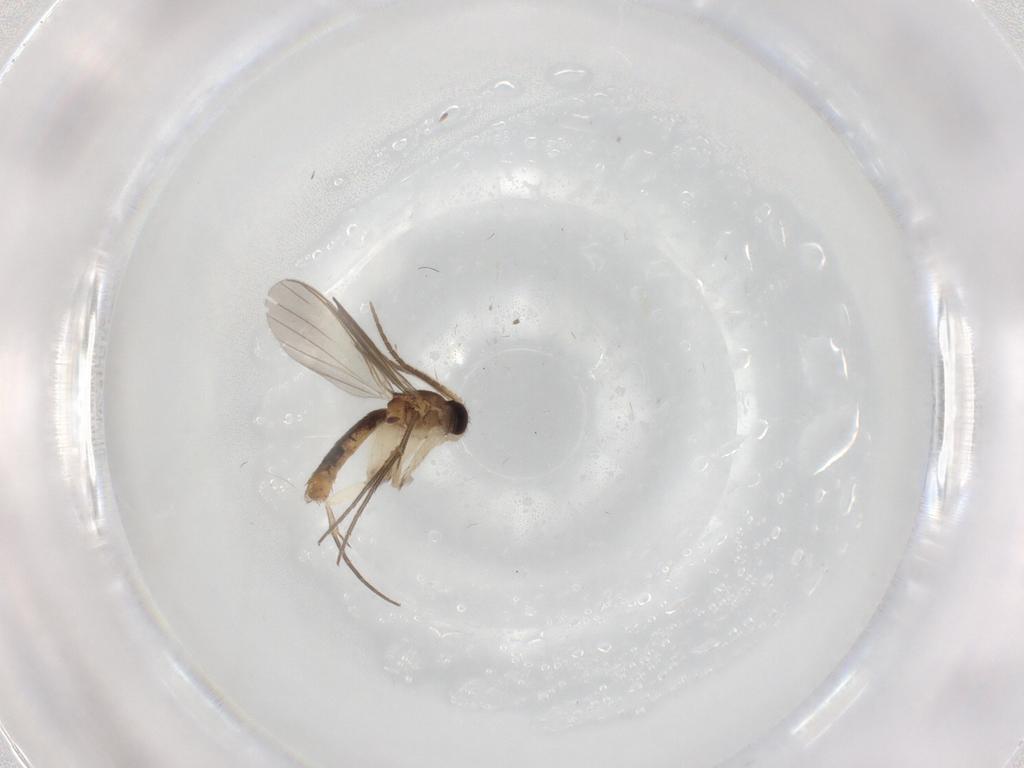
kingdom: Animalia
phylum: Arthropoda
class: Insecta
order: Diptera
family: Mycetophilidae
